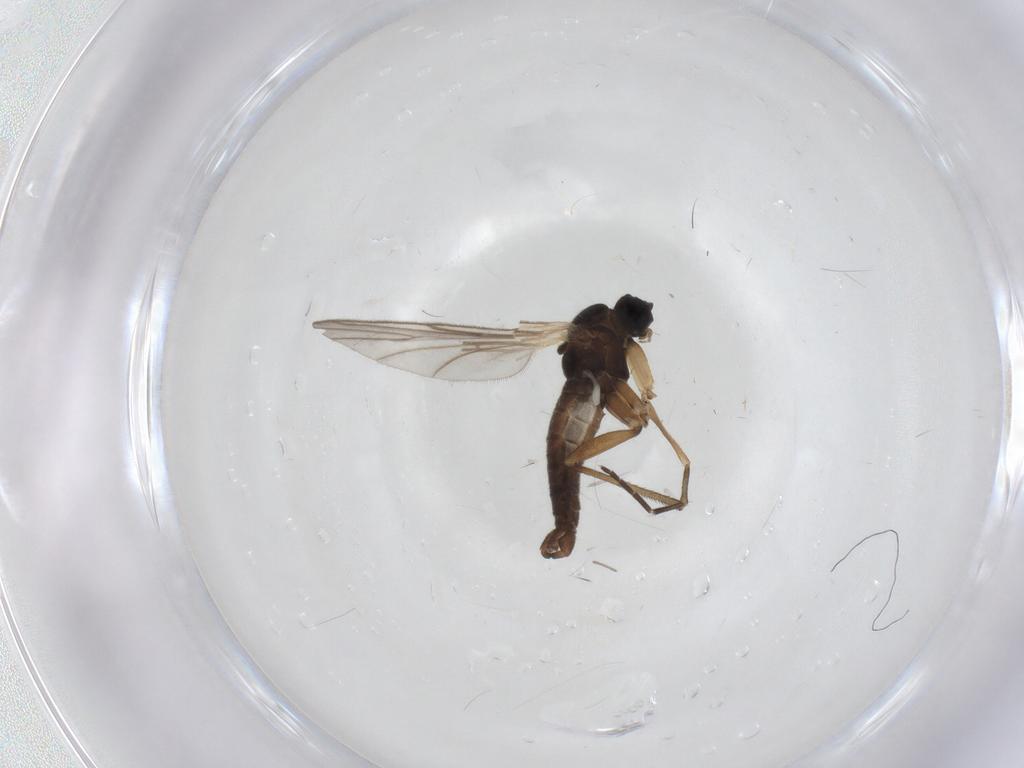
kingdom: Animalia
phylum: Arthropoda
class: Insecta
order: Diptera
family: Sciaridae
